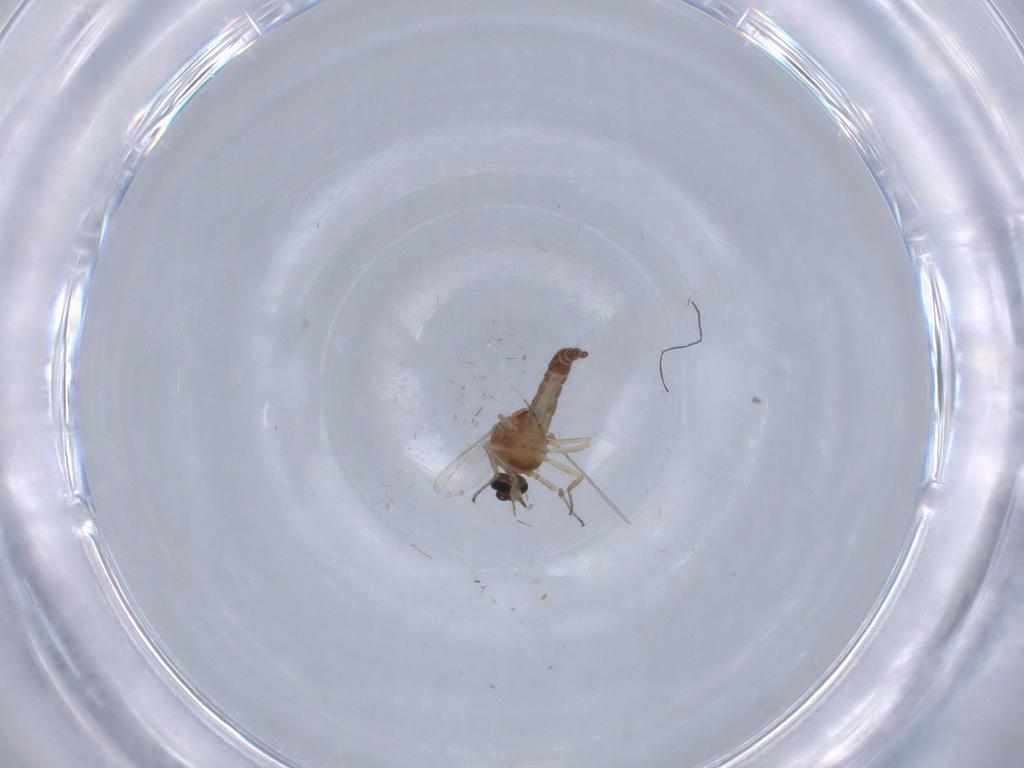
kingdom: Animalia
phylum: Arthropoda
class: Insecta
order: Diptera
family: Ceratopogonidae
